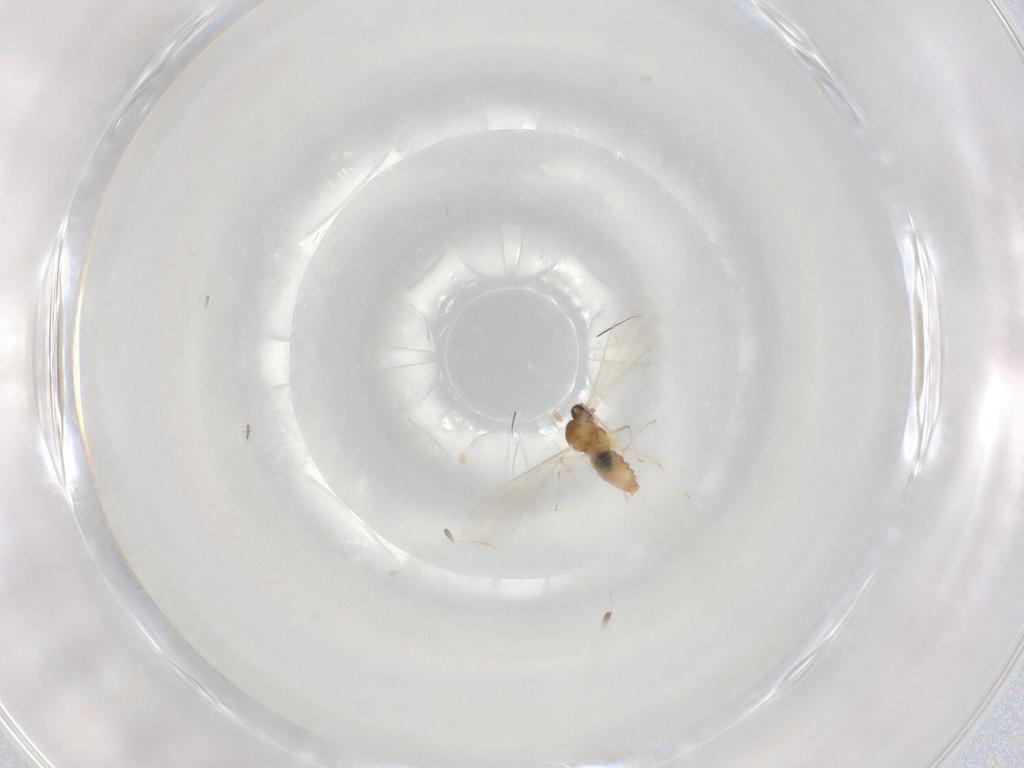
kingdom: Animalia
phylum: Arthropoda
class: Insecta
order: Diptera
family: Cecidomyiidae
